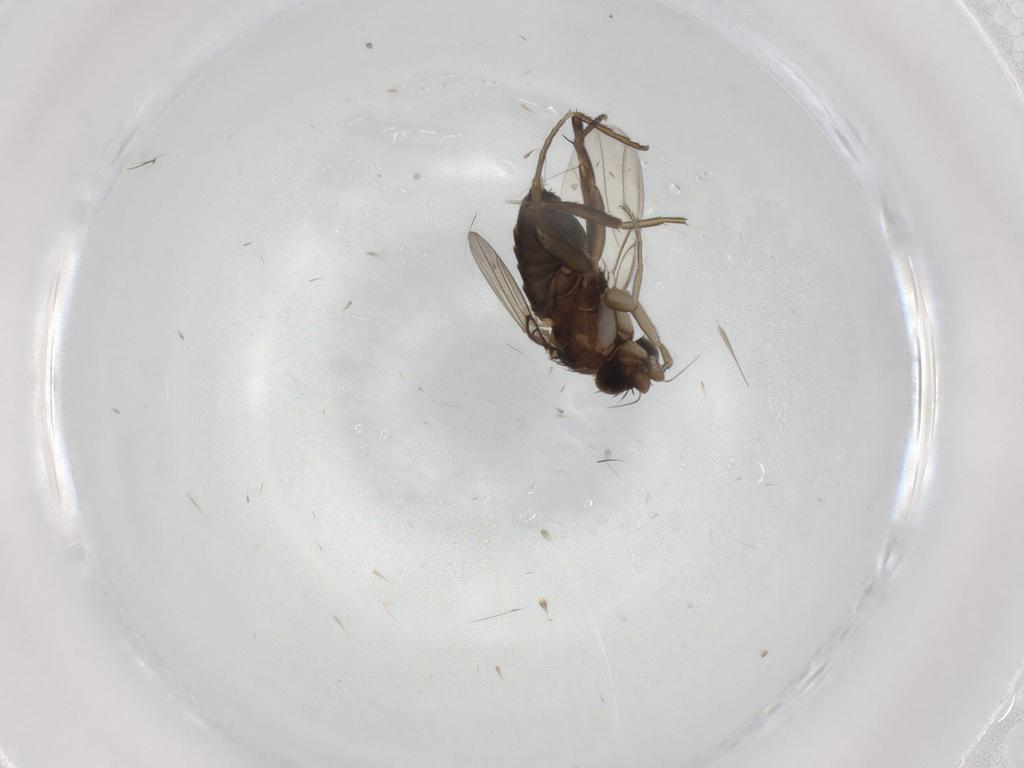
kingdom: Animalia
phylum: Arthropoda
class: Insecta
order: Diptera
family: Phoridae
